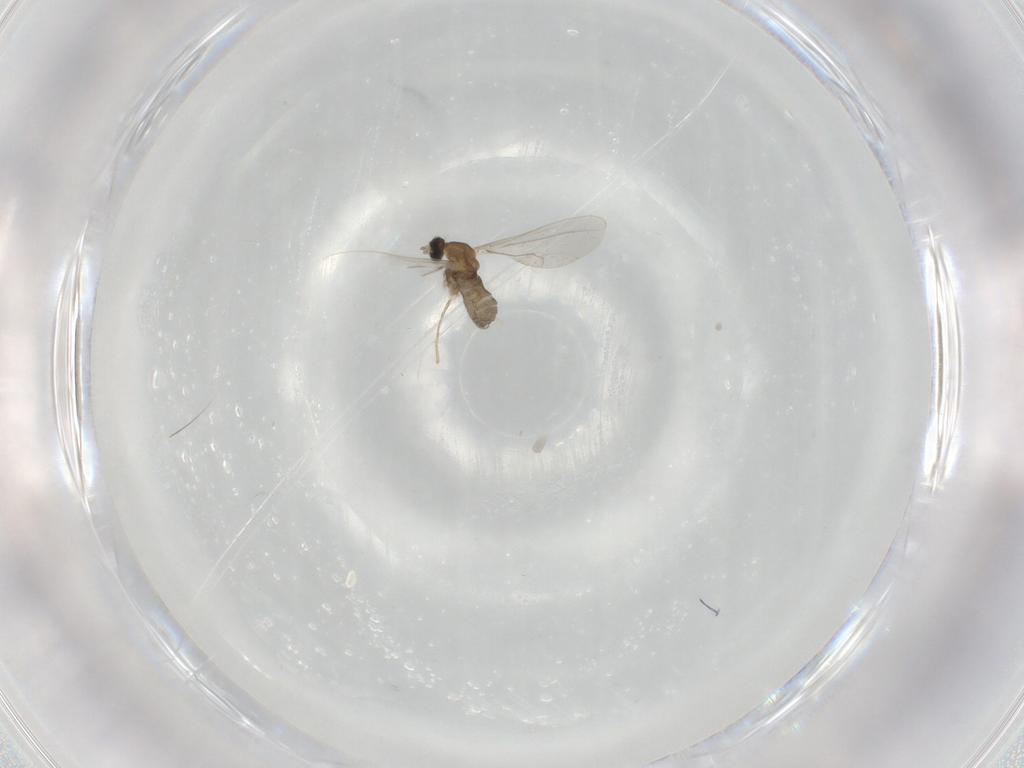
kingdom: Animalia
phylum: Arthropoda
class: Insecta
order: Diptera
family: Cecidomyiidae
